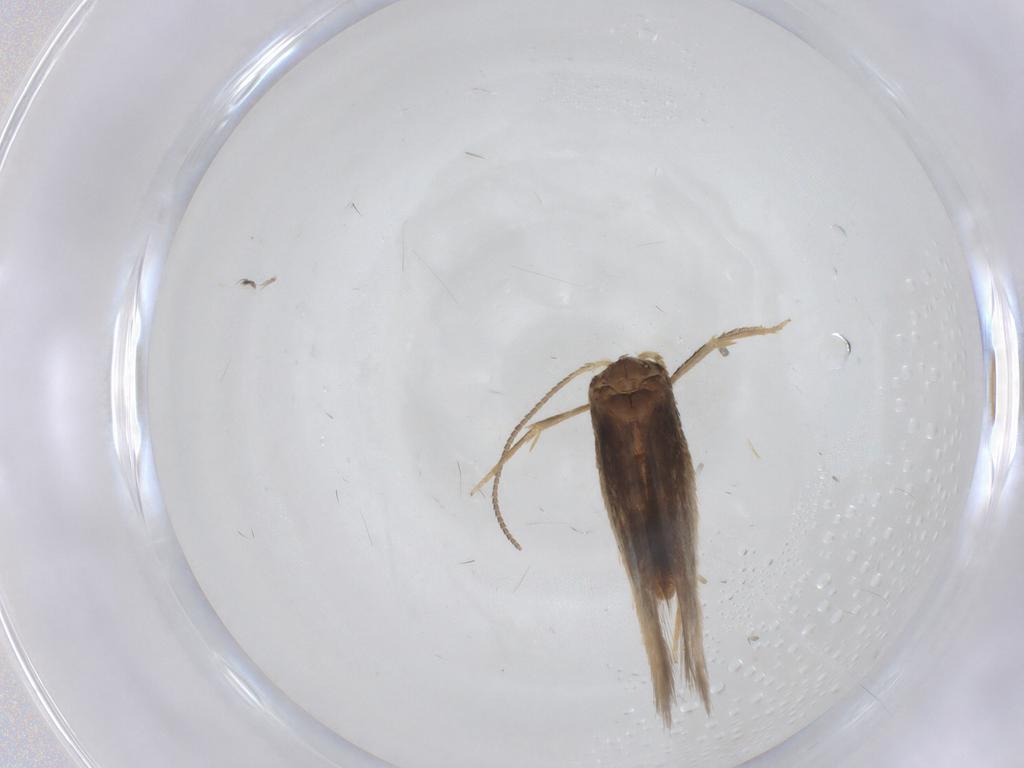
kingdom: Animalia
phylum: Arthropoda
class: Insecta
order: Lepidoptera
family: Nepticulidae
